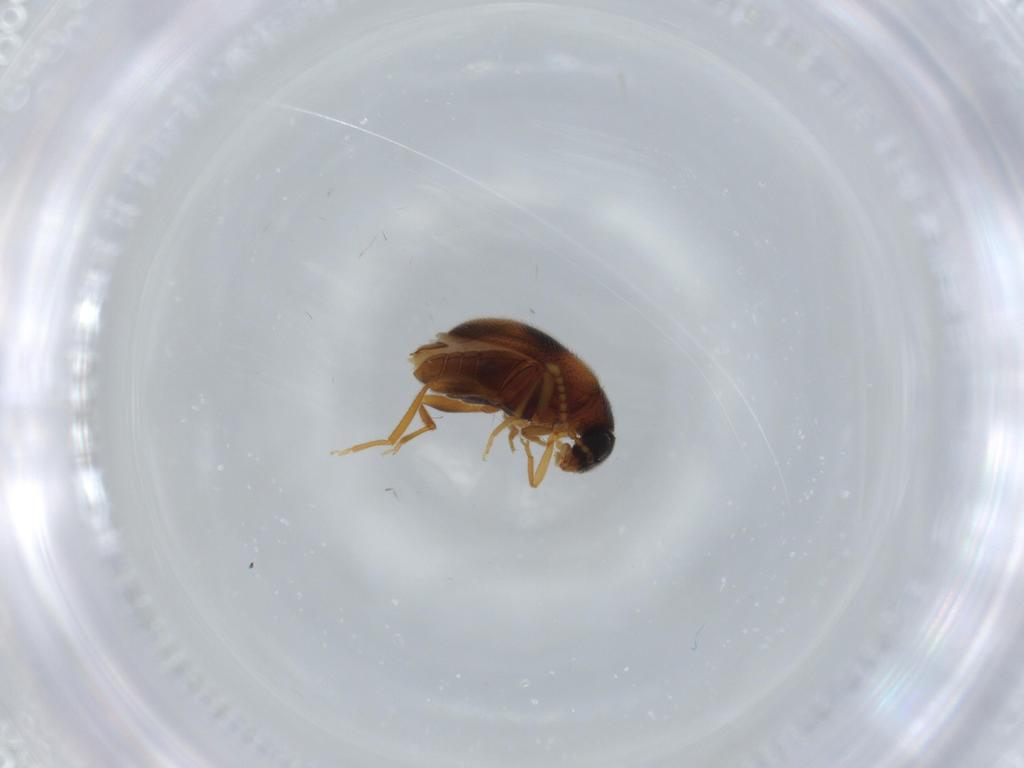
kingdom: Animalia
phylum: Arthropoda
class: Insecta
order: Coleoptera
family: Aderidae
